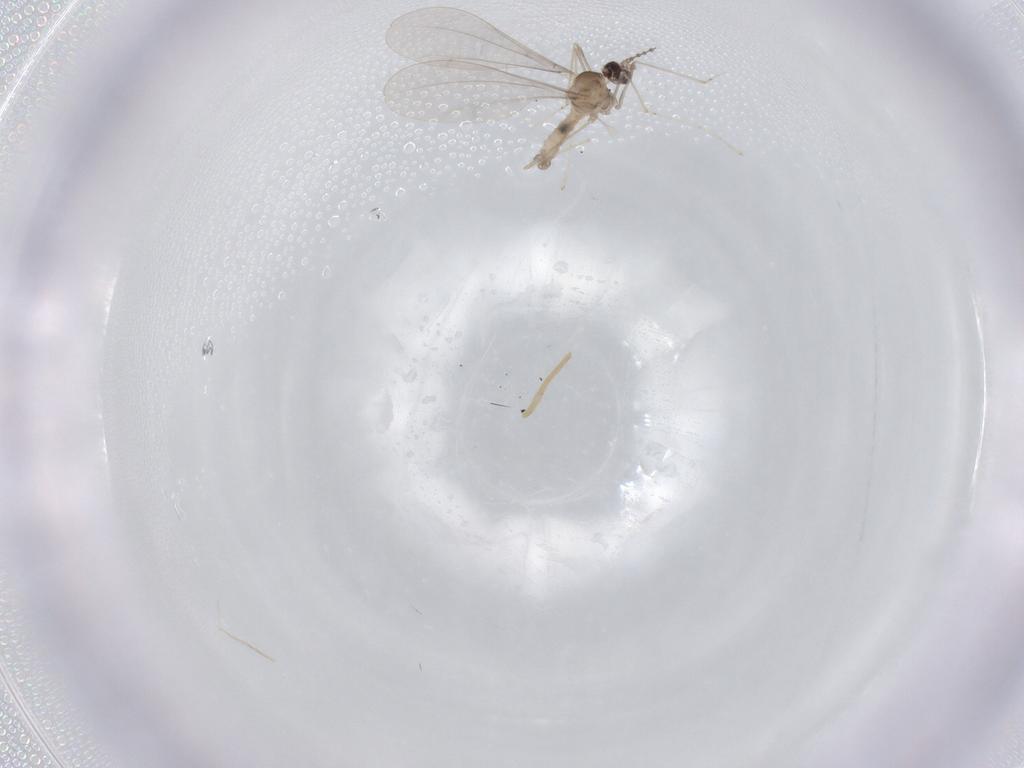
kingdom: Animalia
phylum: Arthropoda
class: Insecta
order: Diptera
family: Cecidomyiidae
